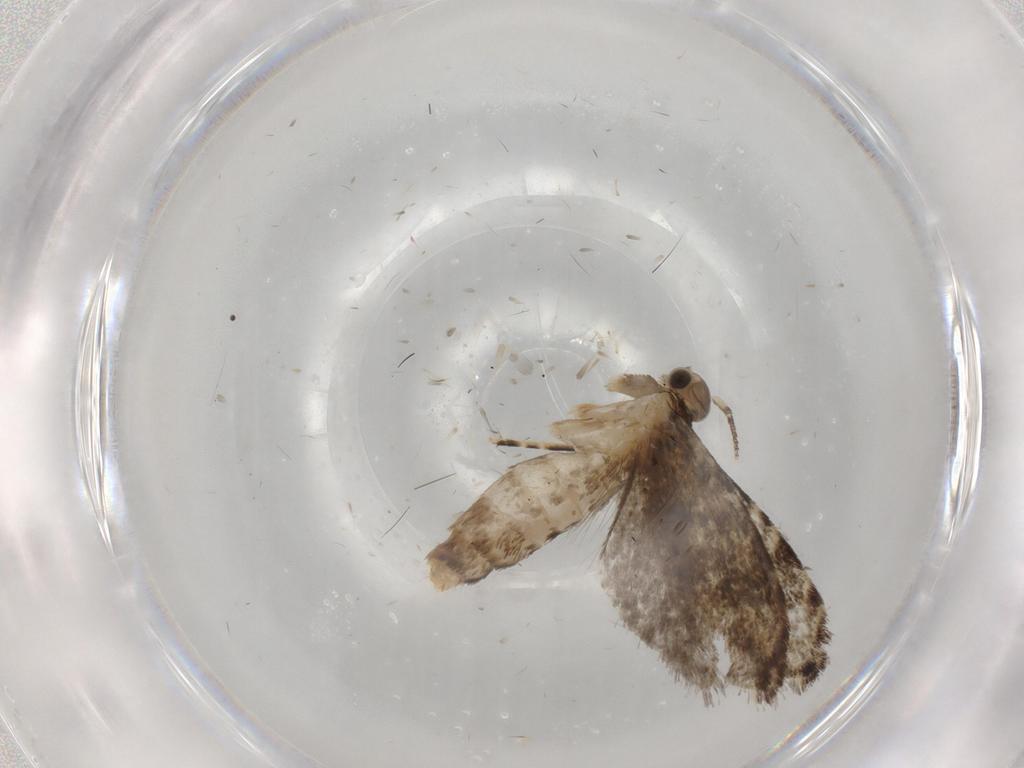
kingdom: Animalia
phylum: Arthropoda
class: Insecta
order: Lepidoptera
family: Tineidae
